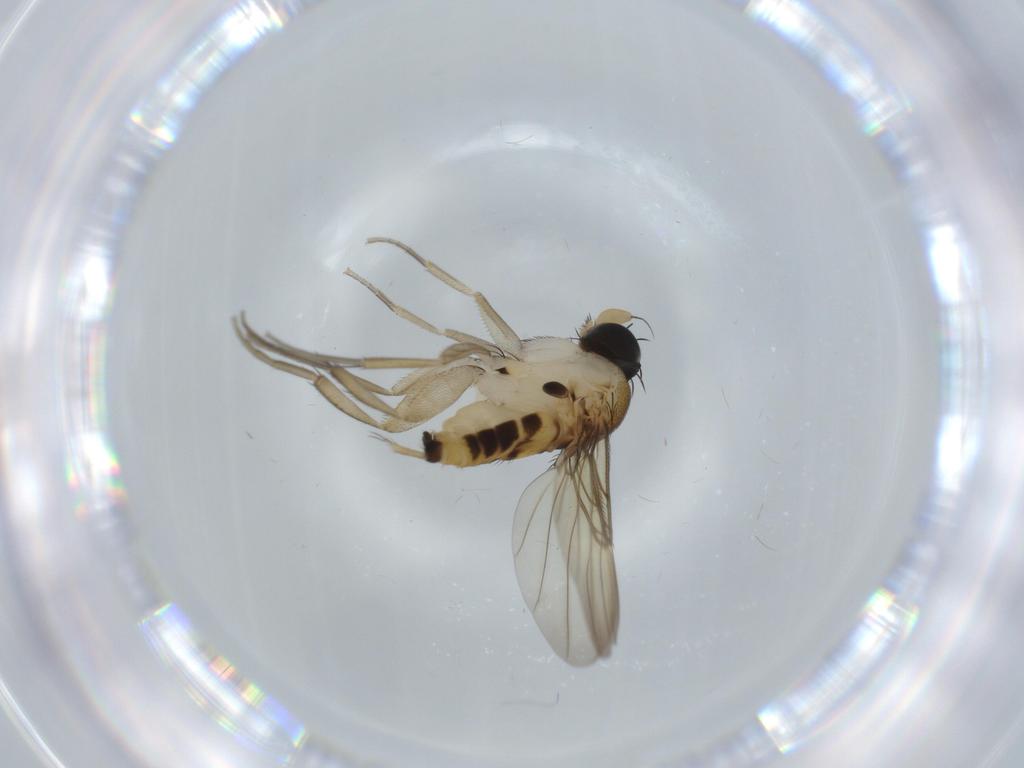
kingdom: Animalia
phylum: Arthropoda
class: Insecta
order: Diptera
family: Phoridae
